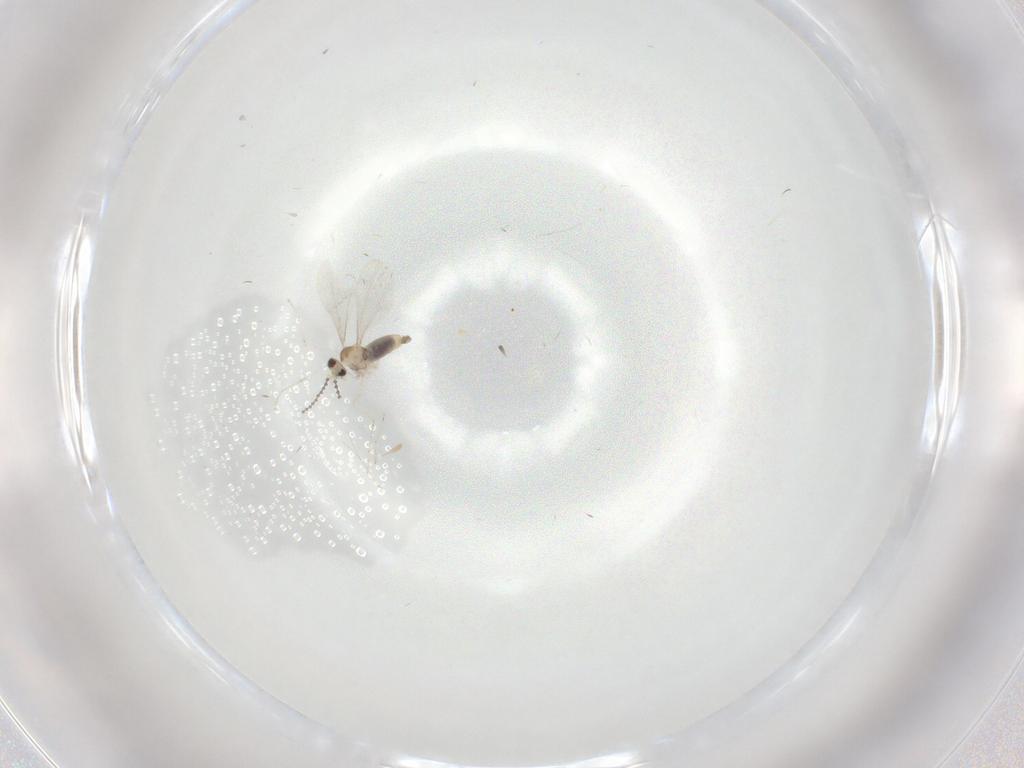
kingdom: Animalia
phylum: Arthropoda
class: Insecta
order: Diptera
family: Cecidomyiidae
